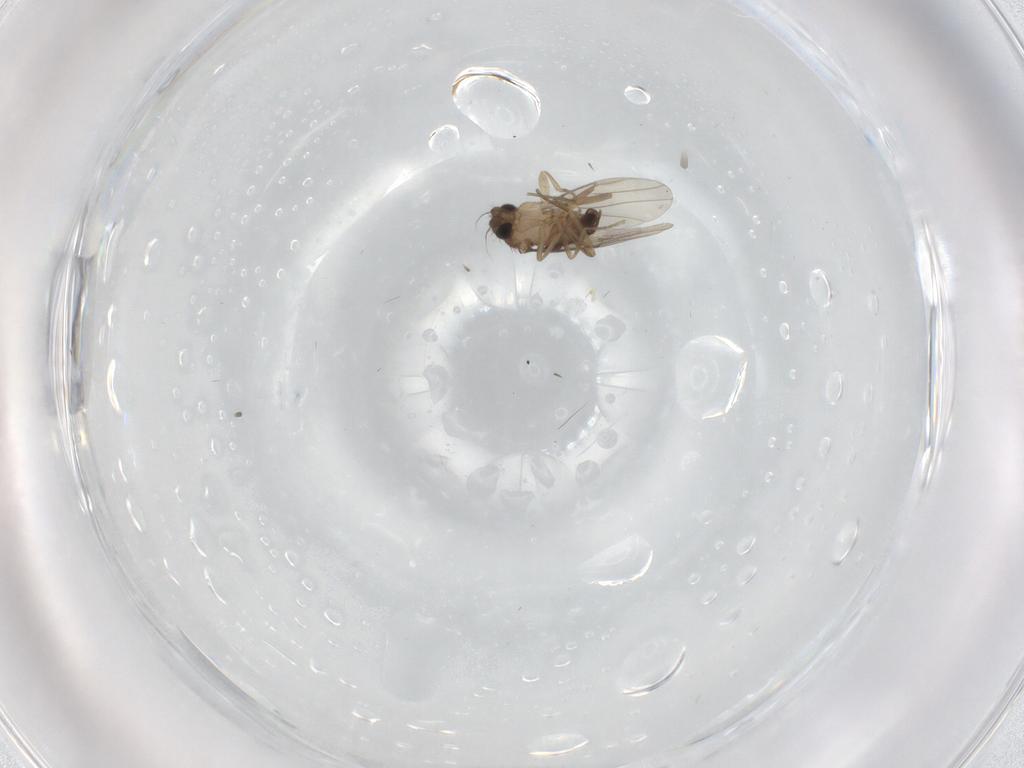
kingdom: Animalia
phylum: Arthropoda
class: Insecta
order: Diptera
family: Phoridae
